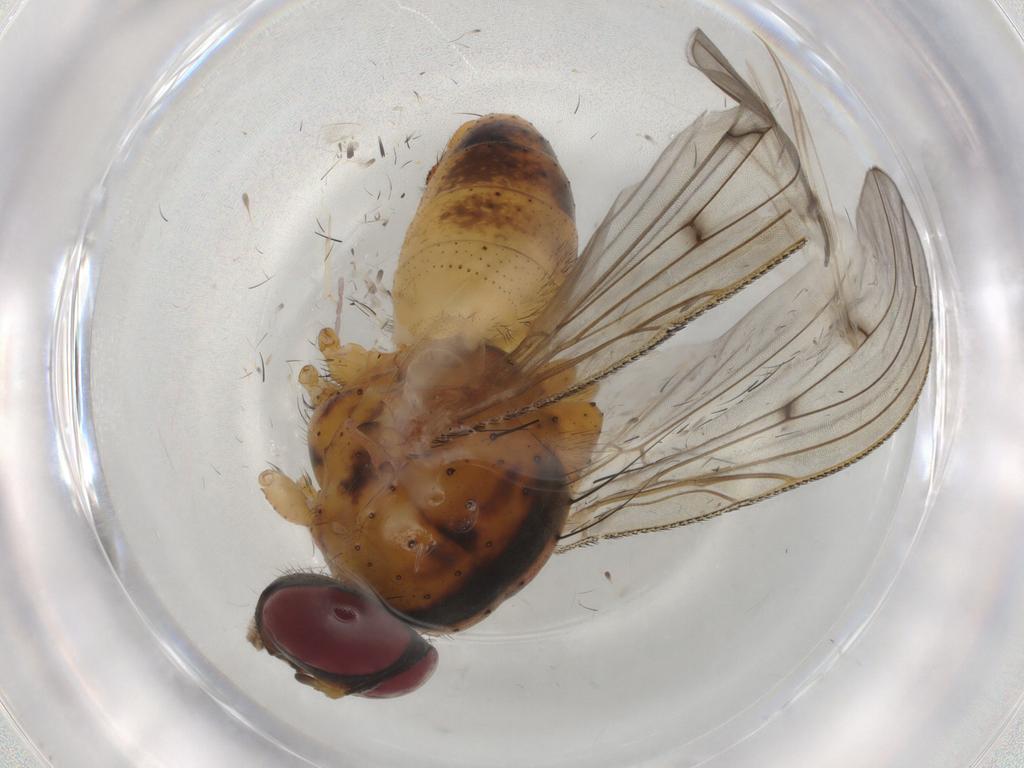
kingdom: Animalia
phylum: Arthropoda
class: Insecta
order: Diptera
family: Muscidae
